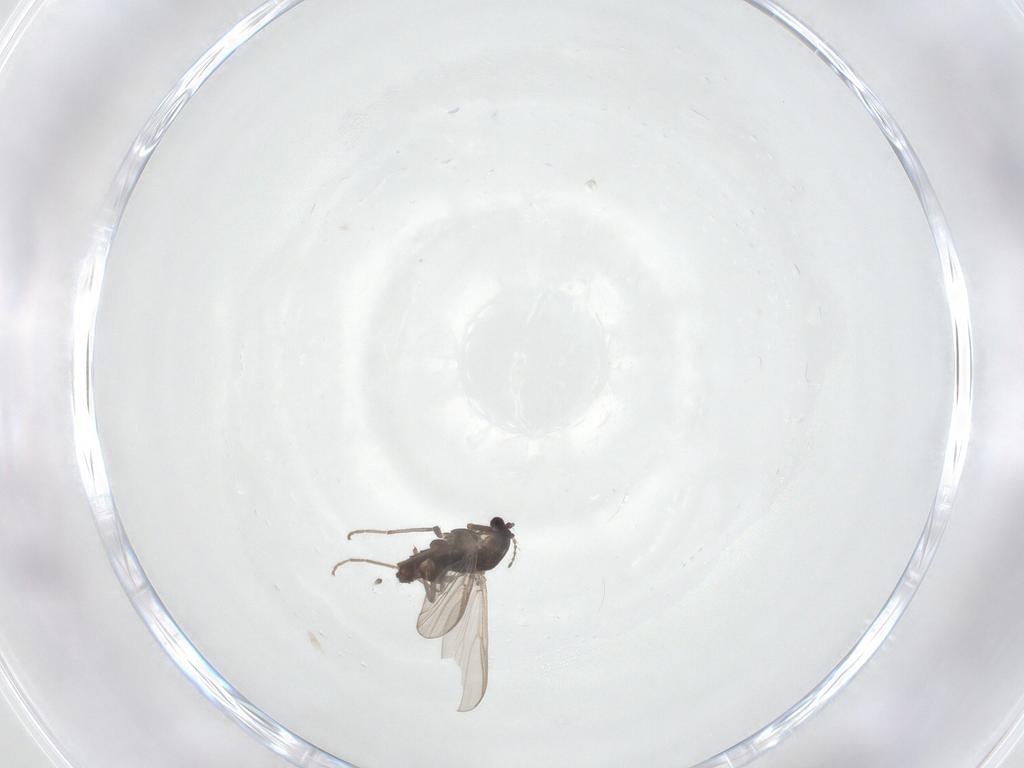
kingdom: Animalia
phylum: Arthropoda
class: Insecta
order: Diptera
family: Chironomidae
